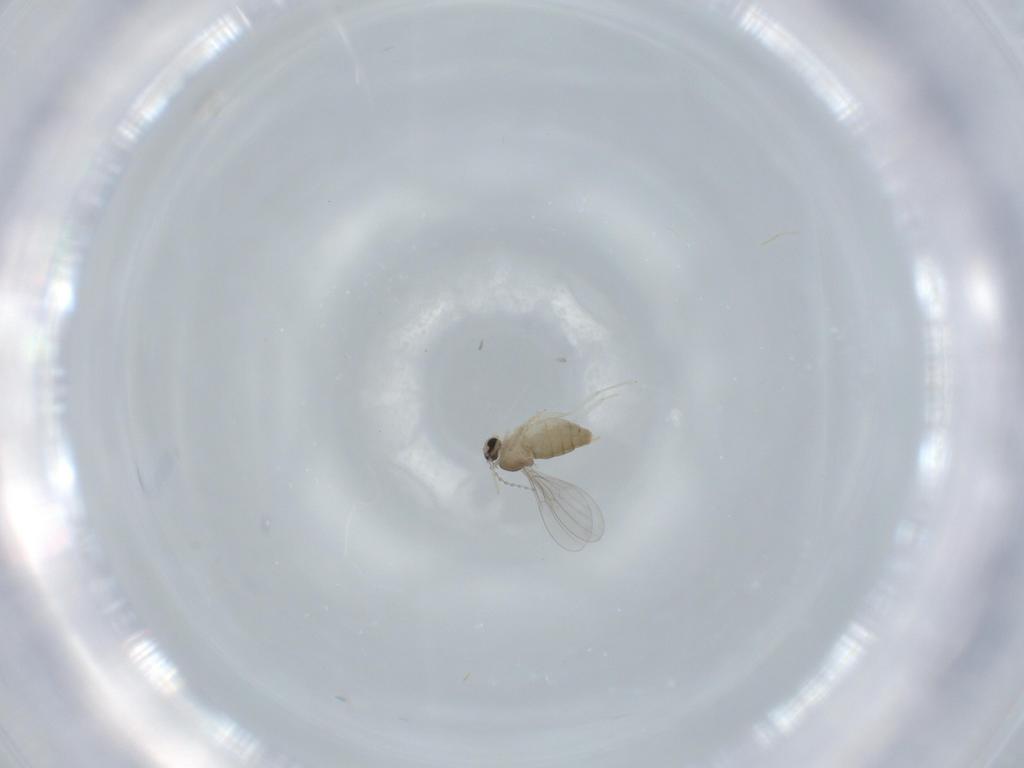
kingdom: Animalia
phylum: Arthropoda
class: Insecta
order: Diptera
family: Cecidomyiidae
